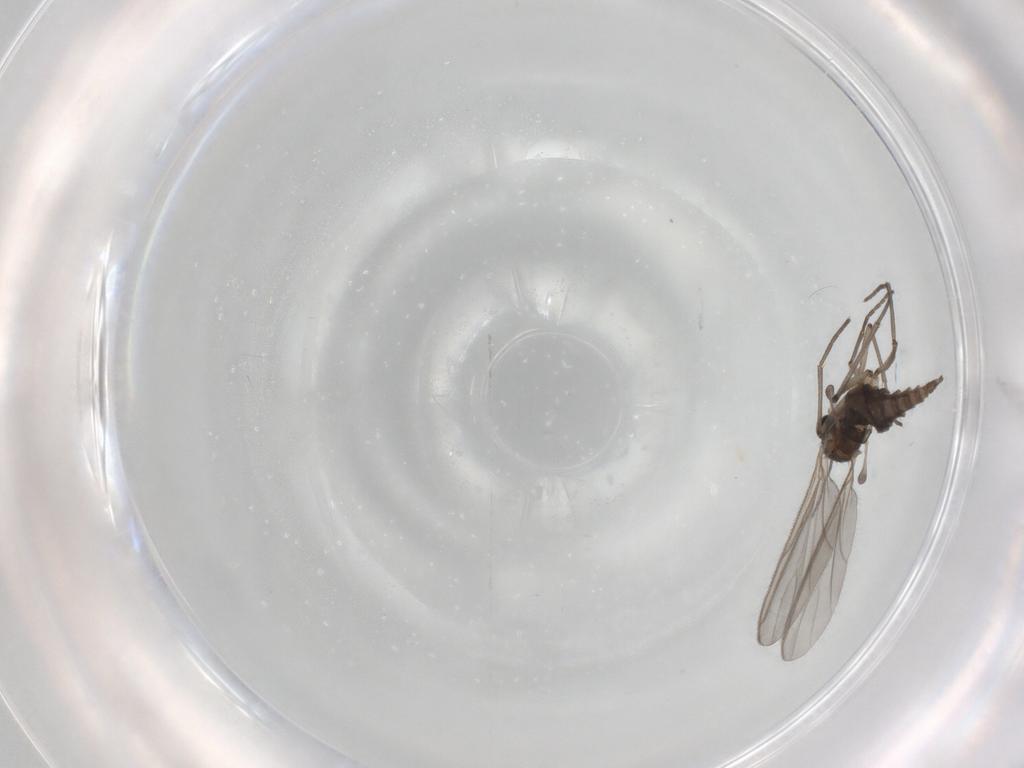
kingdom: Animalia
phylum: Arthropoda
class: Insecta
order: Diptera
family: Sciaridae
